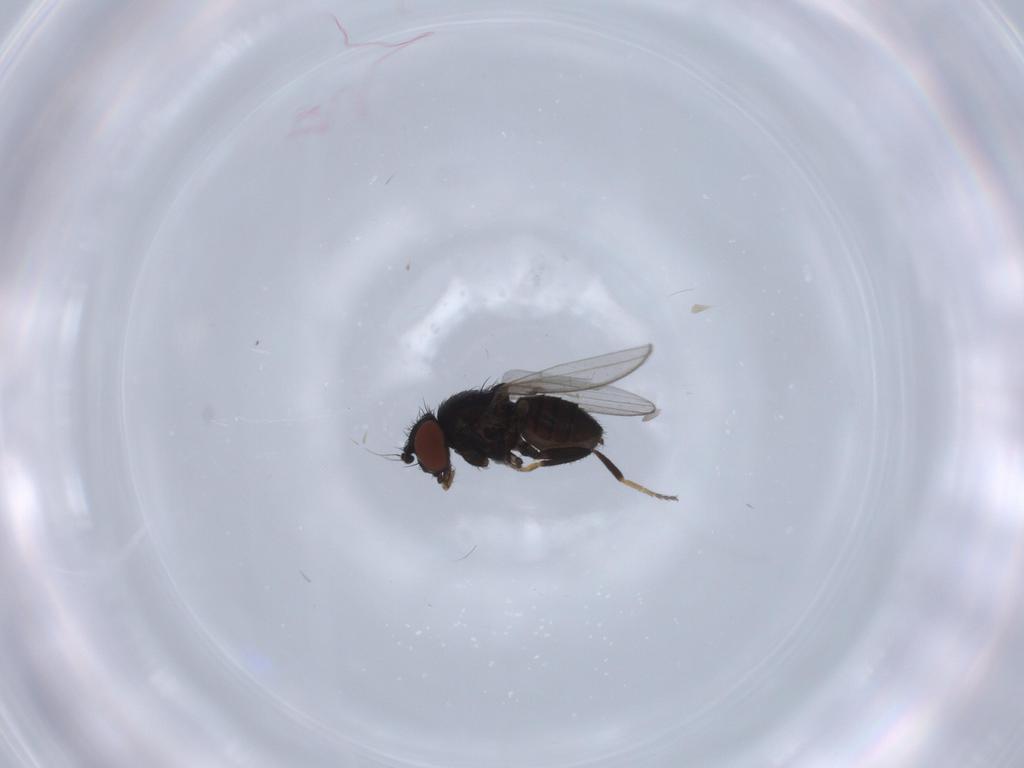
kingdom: Animalia
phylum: Arthropoda
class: Insecta
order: Diptera
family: Milichiidae
